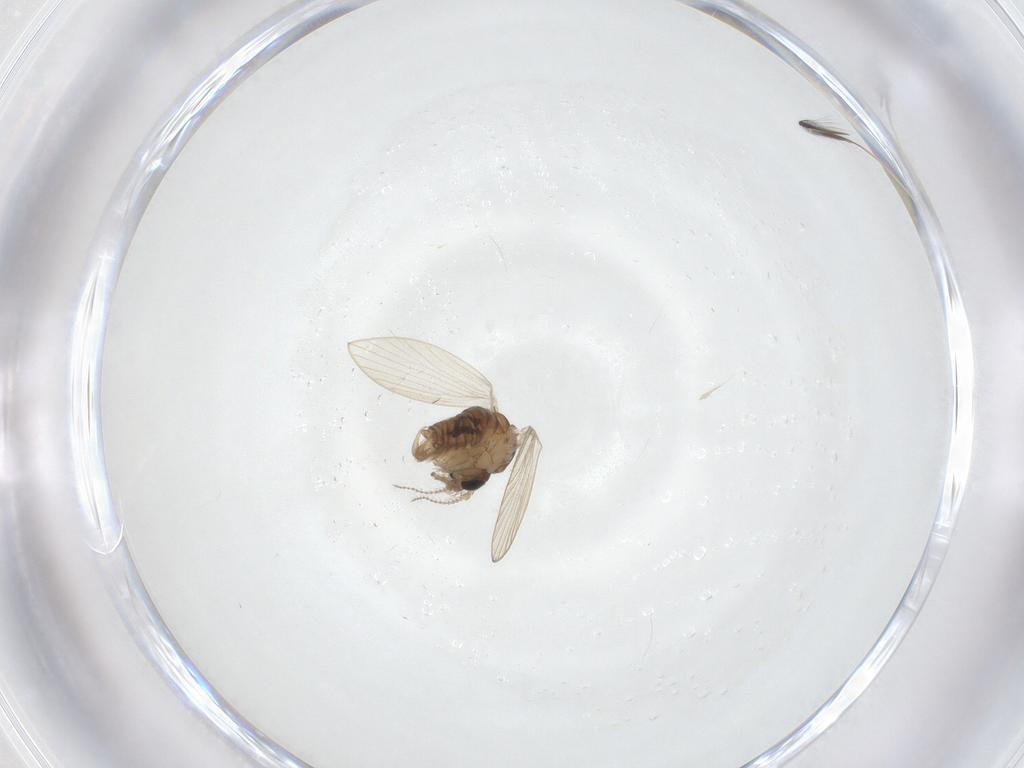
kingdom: Animalia
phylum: Arthropoda
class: Insecta
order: Diptera
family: Psychodidae
